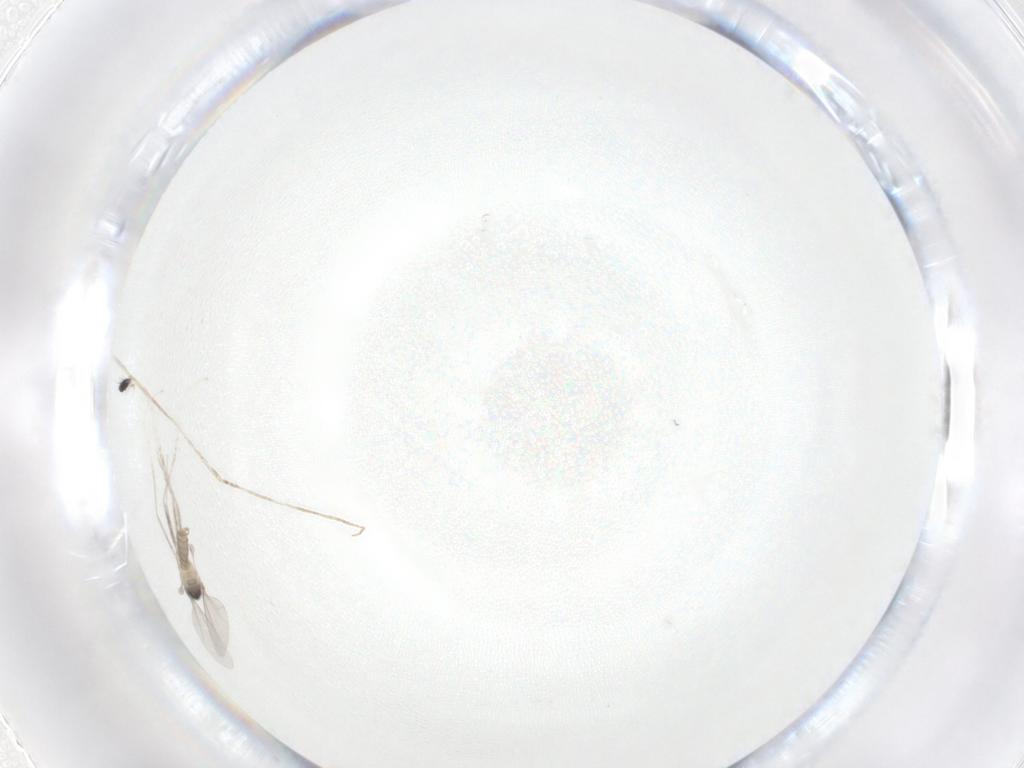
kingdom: Animalia
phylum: Arthropoda
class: Insecta
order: Diptera
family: Cecidomyiidae
